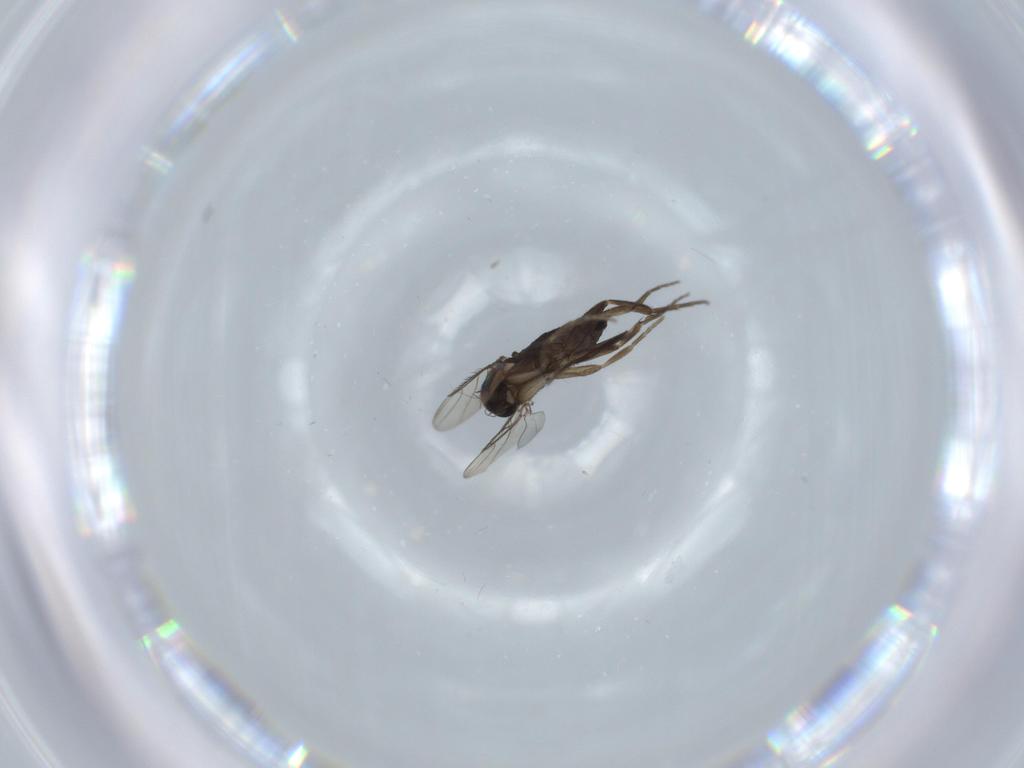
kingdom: Animalia
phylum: Arthropoda
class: Insecta
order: Diptera
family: Phoridae
